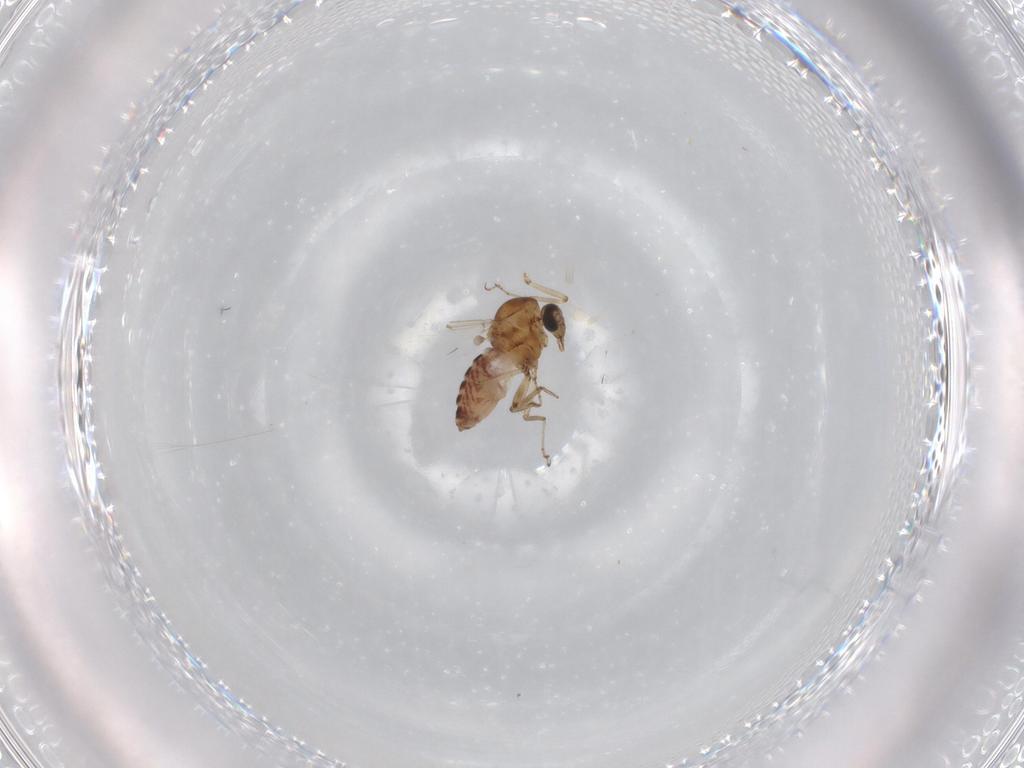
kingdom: Animalia
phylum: Arthropoda
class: Insecta
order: Diptera
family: Ceratopogonidae
